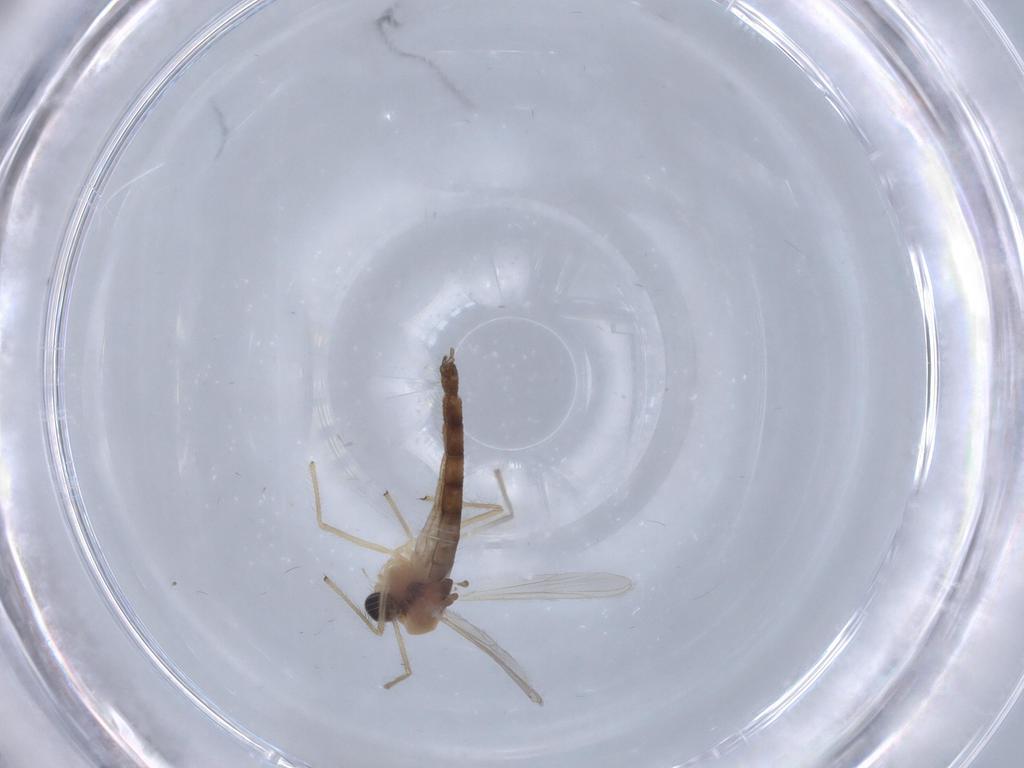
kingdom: Animalia
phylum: Arthropoda
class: Insecta
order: Diptera
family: Chironomidae
